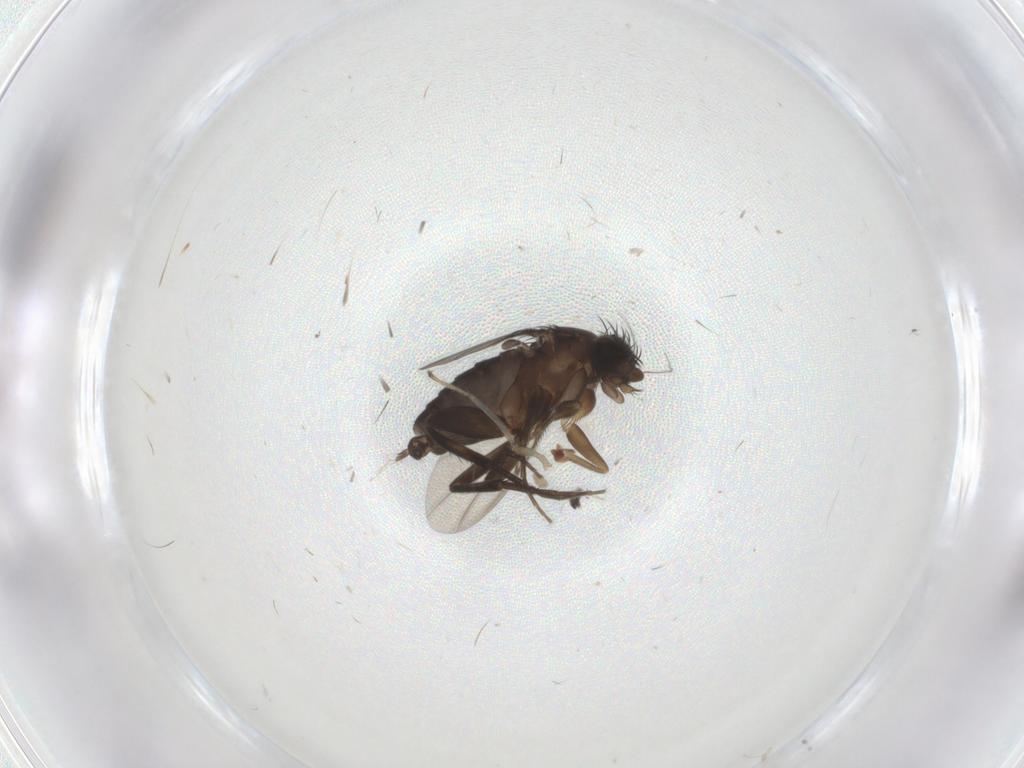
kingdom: Animalia
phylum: Arthropoda
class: Insecta
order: Diptera
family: Phoridae
